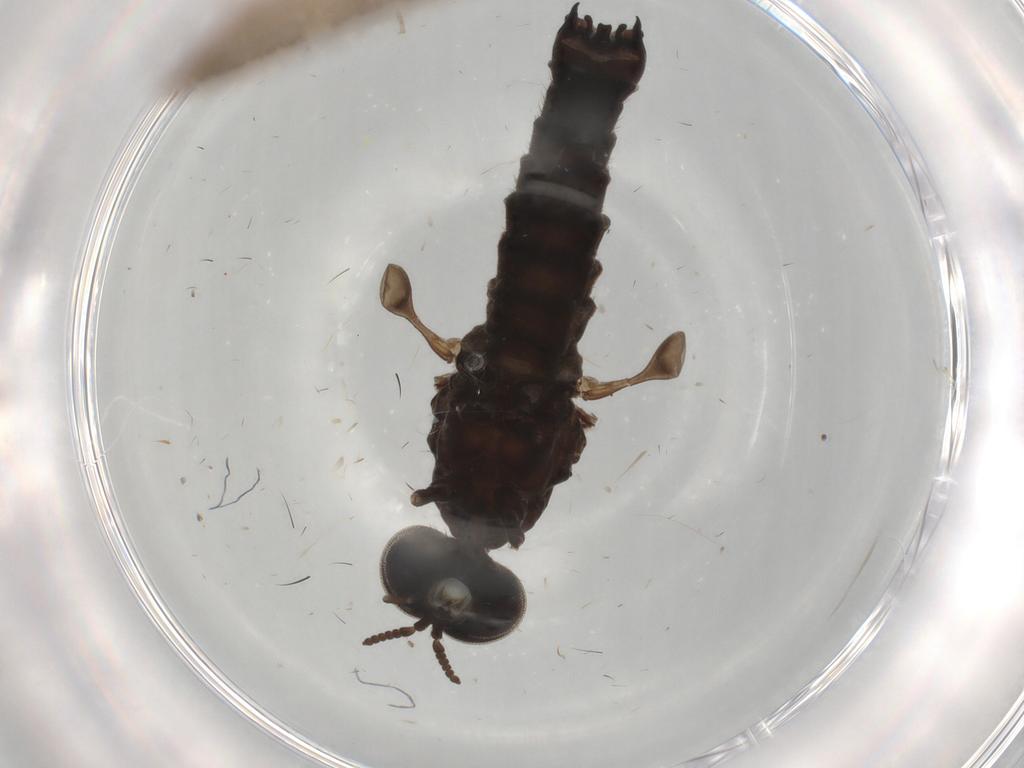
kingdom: Animalia
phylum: Arthropoda
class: Insecta
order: Diptera
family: Phoridae
